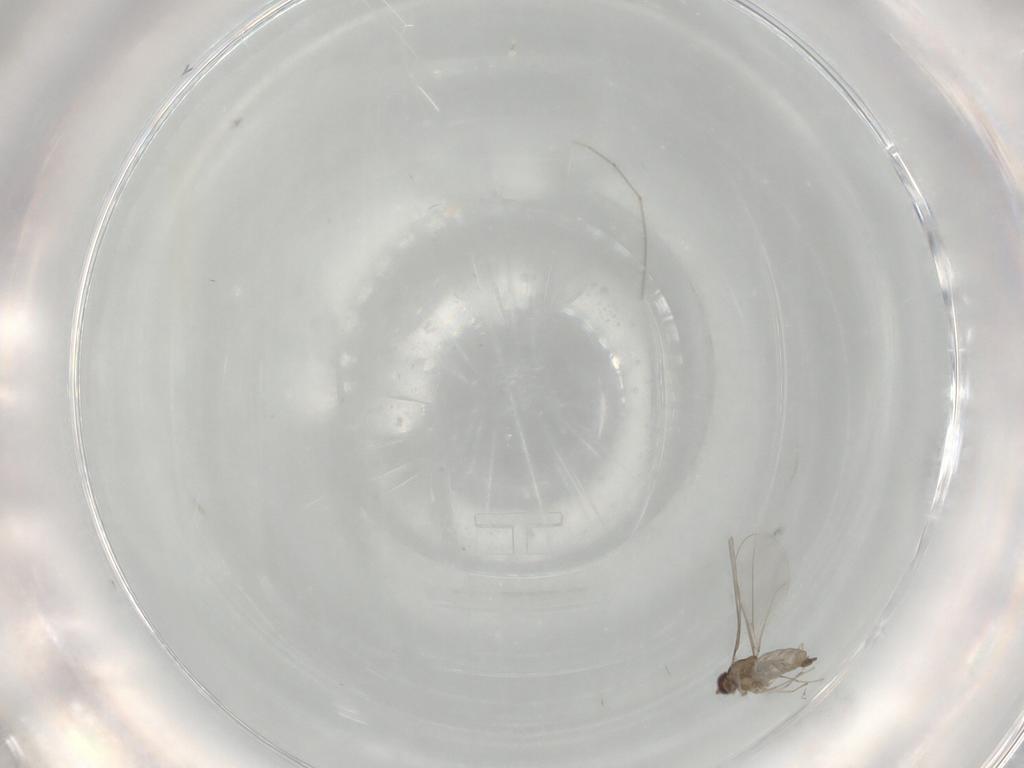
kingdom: Animalia
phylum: Arthropoda
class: Insecta
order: Diptera
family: Cecidomyiidae
